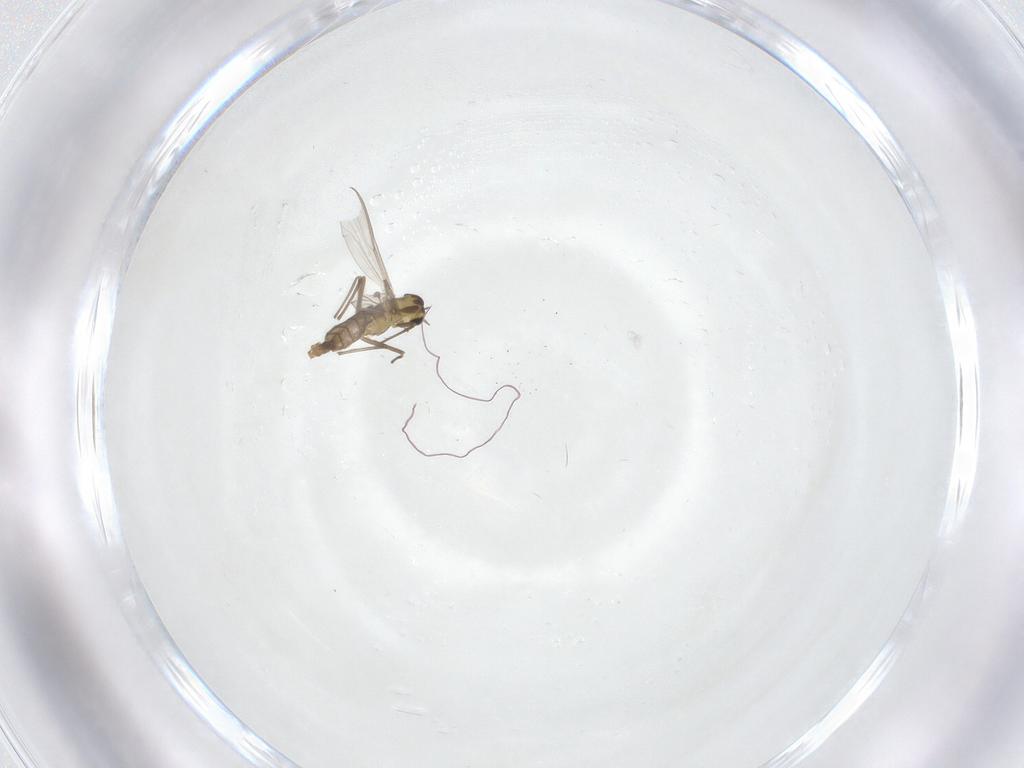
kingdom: Animalia
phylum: Arthropoda
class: Insecta
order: Diptera
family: Chironomidae
